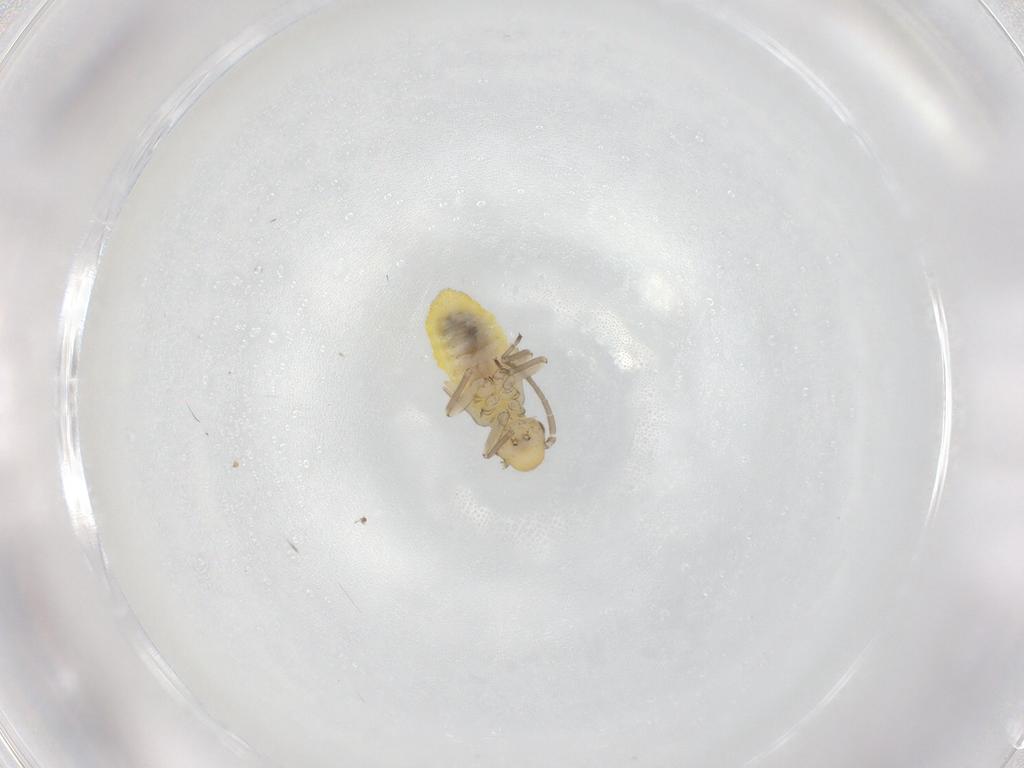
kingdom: Animalia
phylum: Arthropoda
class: Insecta
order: Psocodea
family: Caeciliusidae
